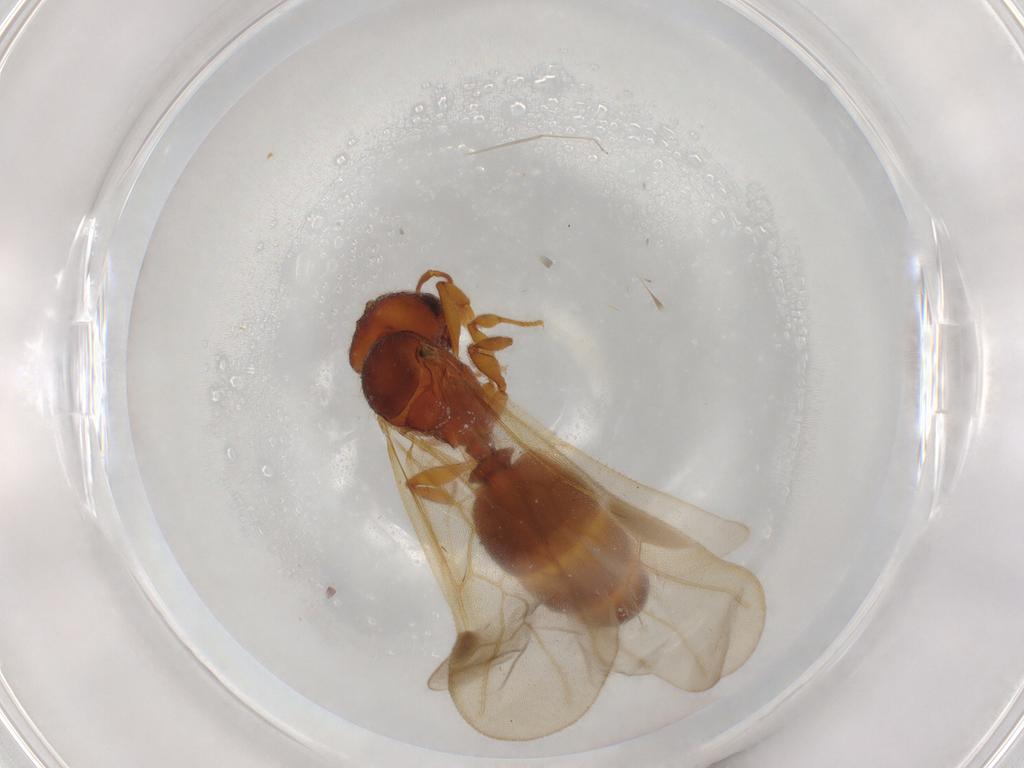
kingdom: Animalia
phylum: Arthropoda
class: Insecta
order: Hymenoptera
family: Formicidae
